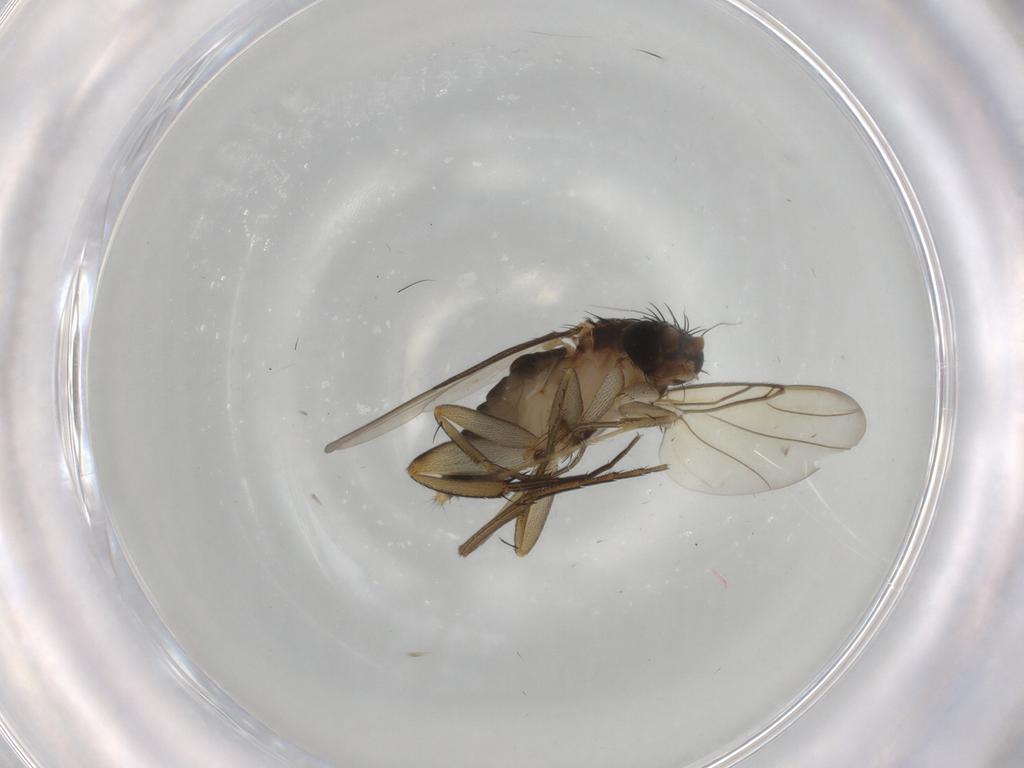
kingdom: Animalia
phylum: Arthropoda
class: Insecta
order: Diptera
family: Limoniidae
